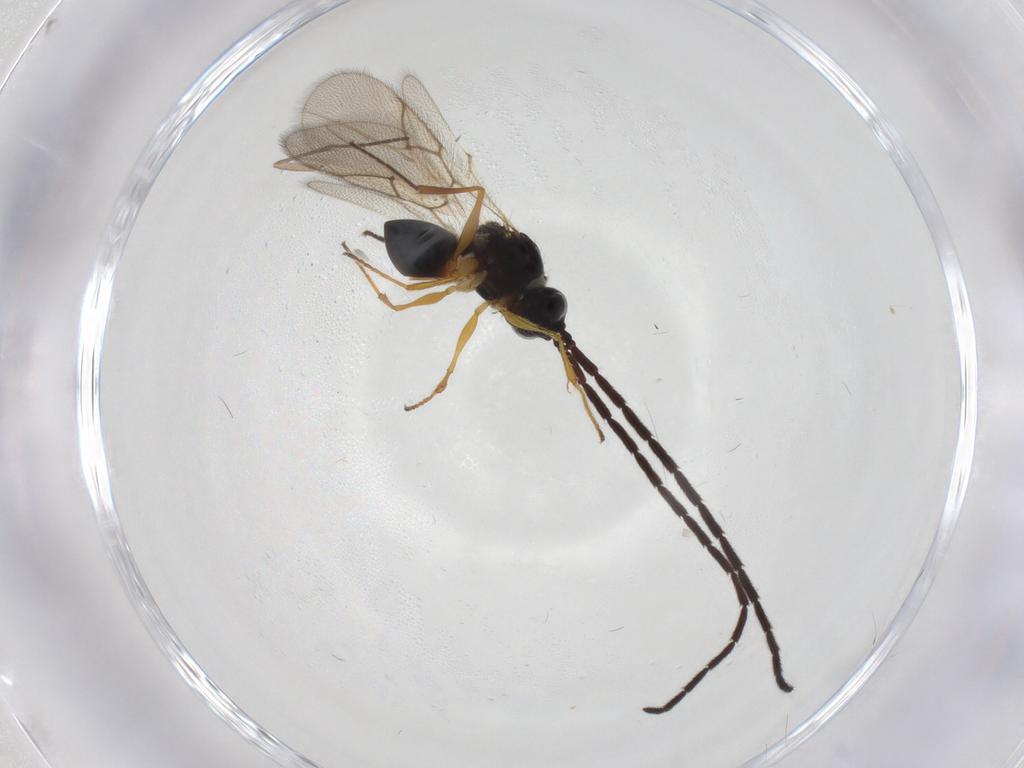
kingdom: Animalia
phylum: Arthropoda
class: Insecta
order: Hymenoptera
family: Figitidae
